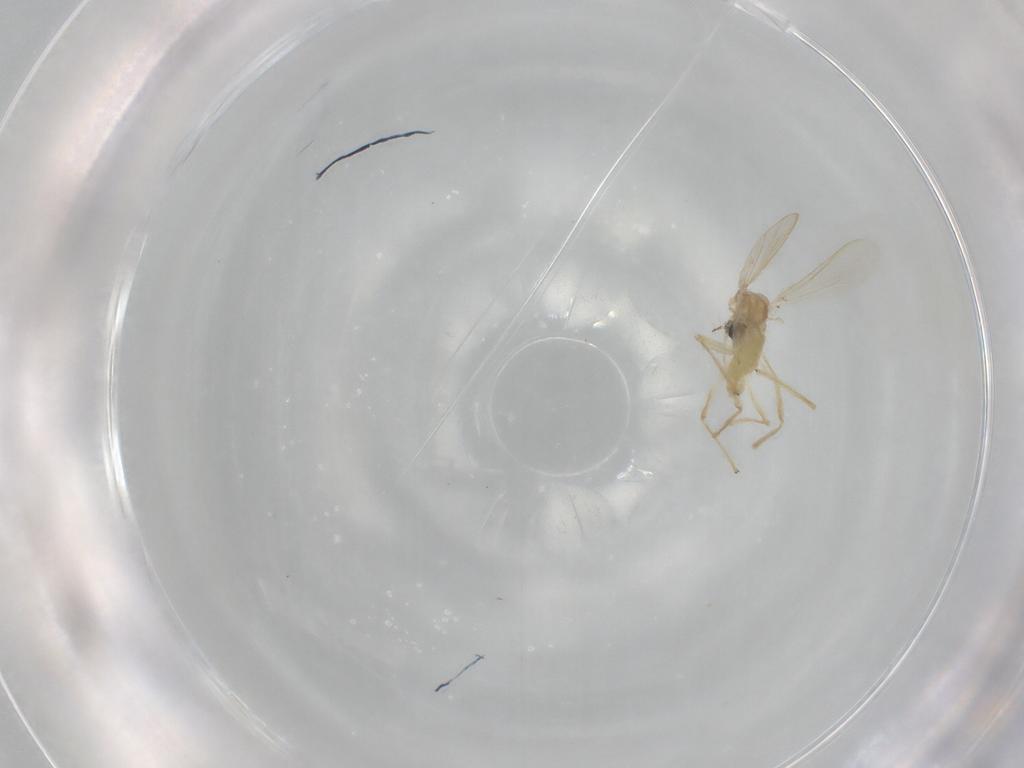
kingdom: Animalia
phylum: Arthropoda
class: Insecta
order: Diptera
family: Chironomidae
